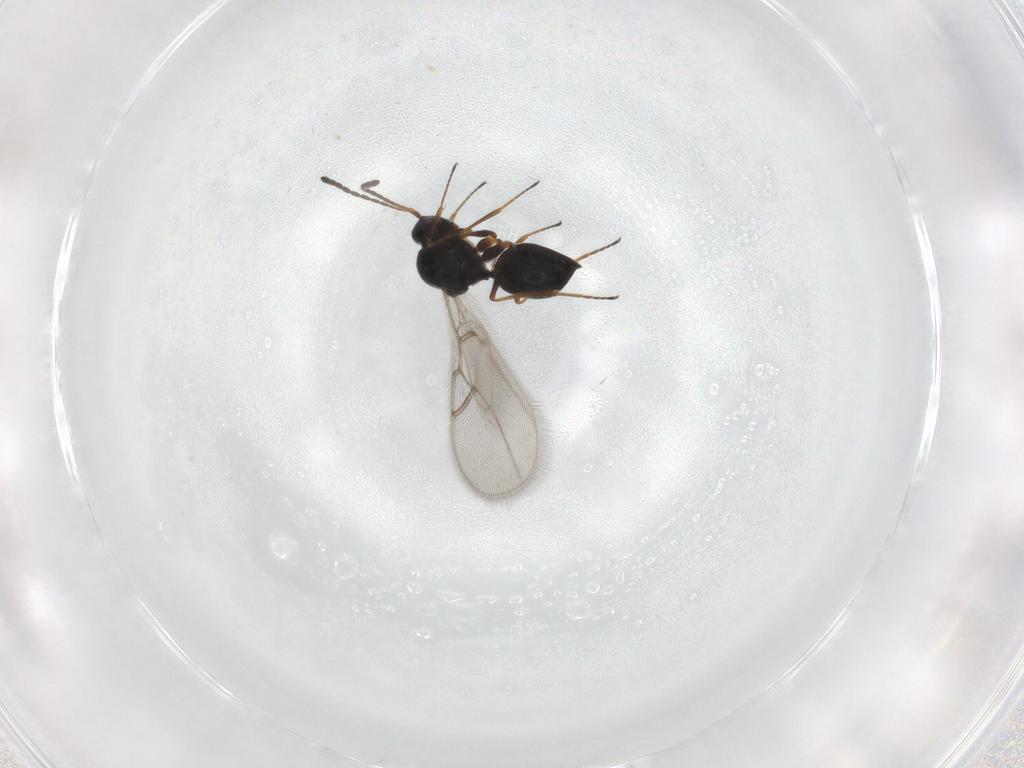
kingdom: Animalia
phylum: Arthropoda
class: Insecta
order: Hymenoptera
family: Figitidae
